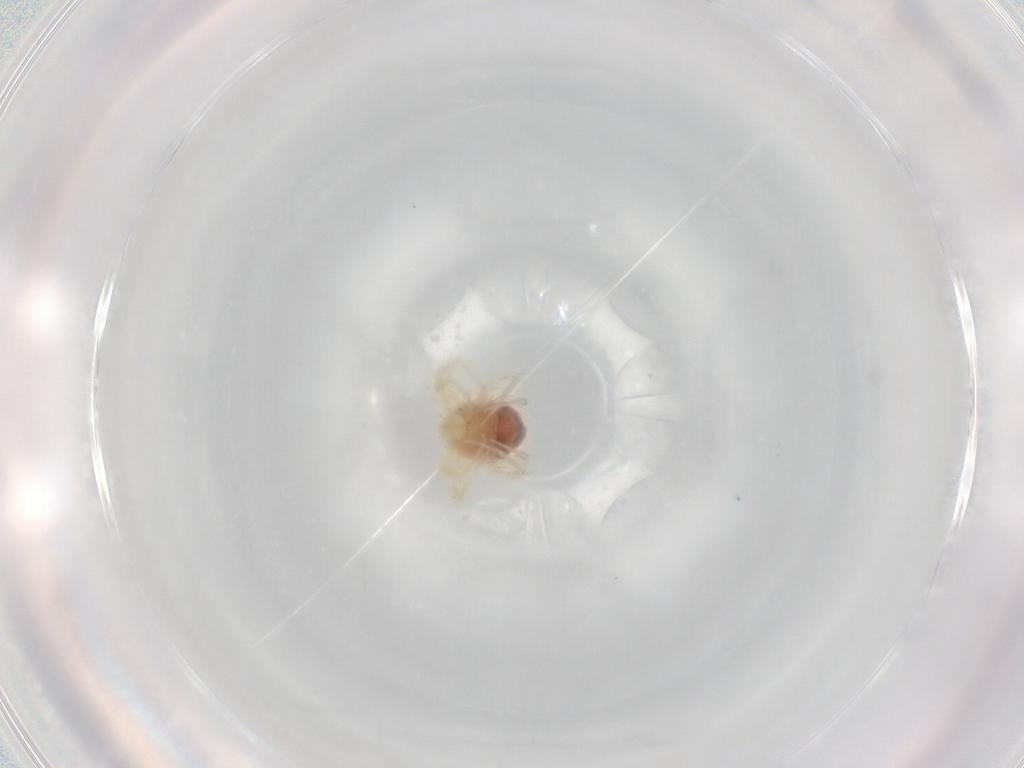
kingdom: Animalia
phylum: Arthropoda
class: Arachnida
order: Trombidiformes
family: Anystidae
